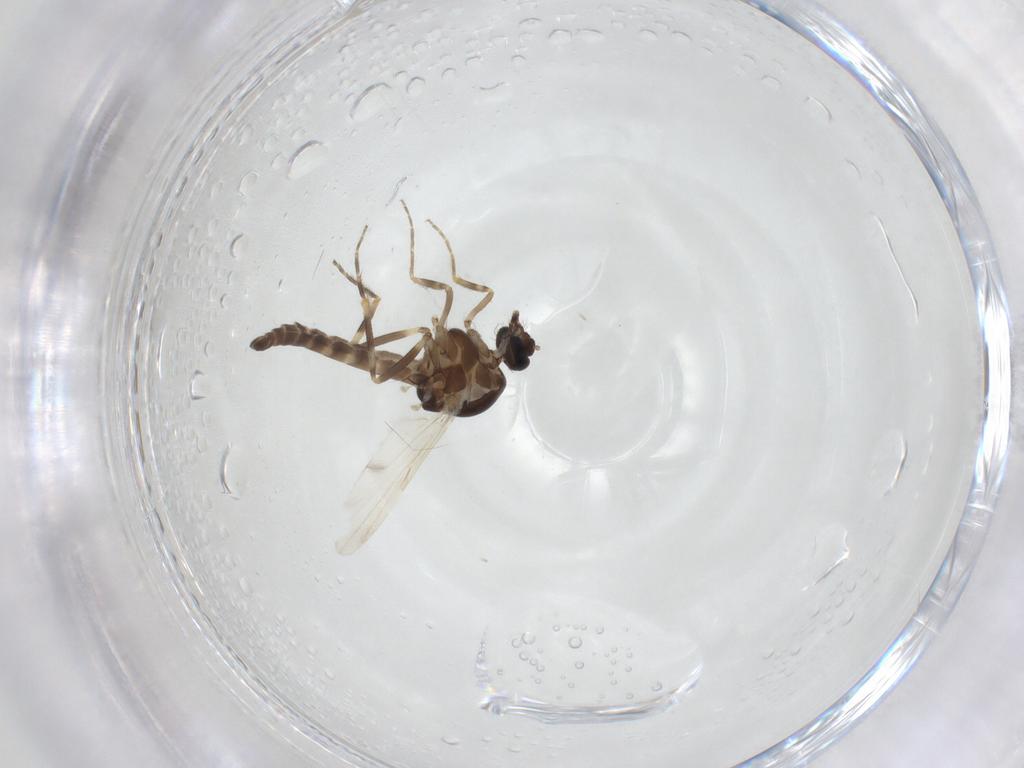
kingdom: Animalia
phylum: Arthropoda
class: Insecta
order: Diptera
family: Ceratopogonidae
